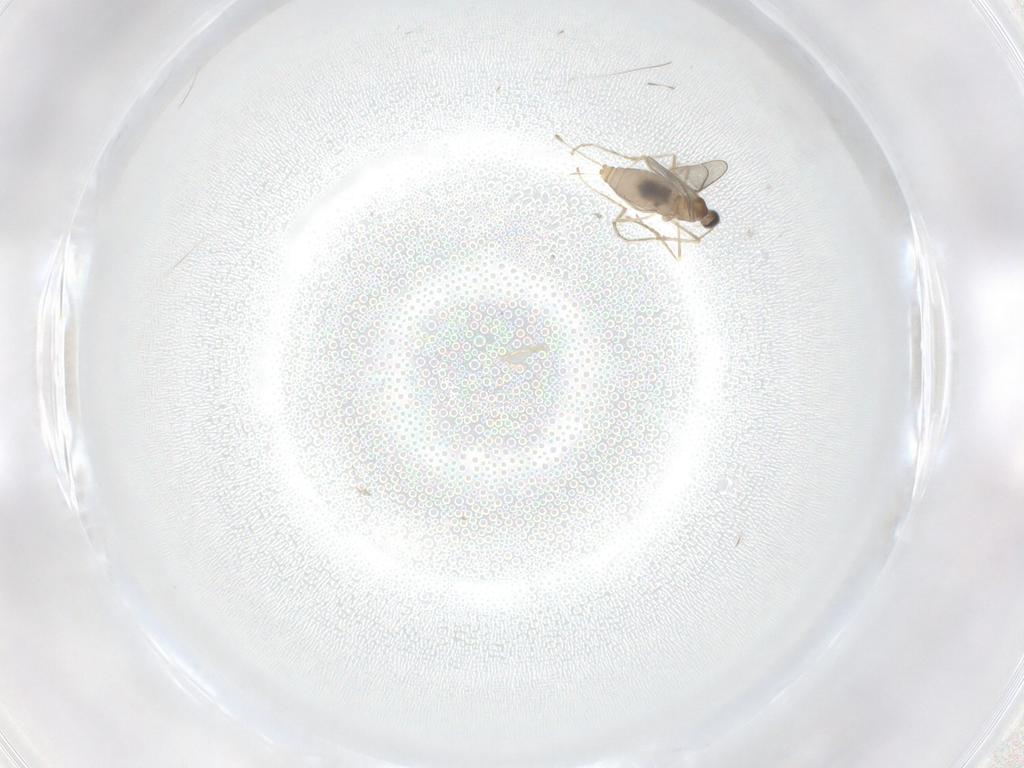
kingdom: Animalia
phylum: Arthropoda
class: Insecta
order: Diptera
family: Cecidomyiidae
